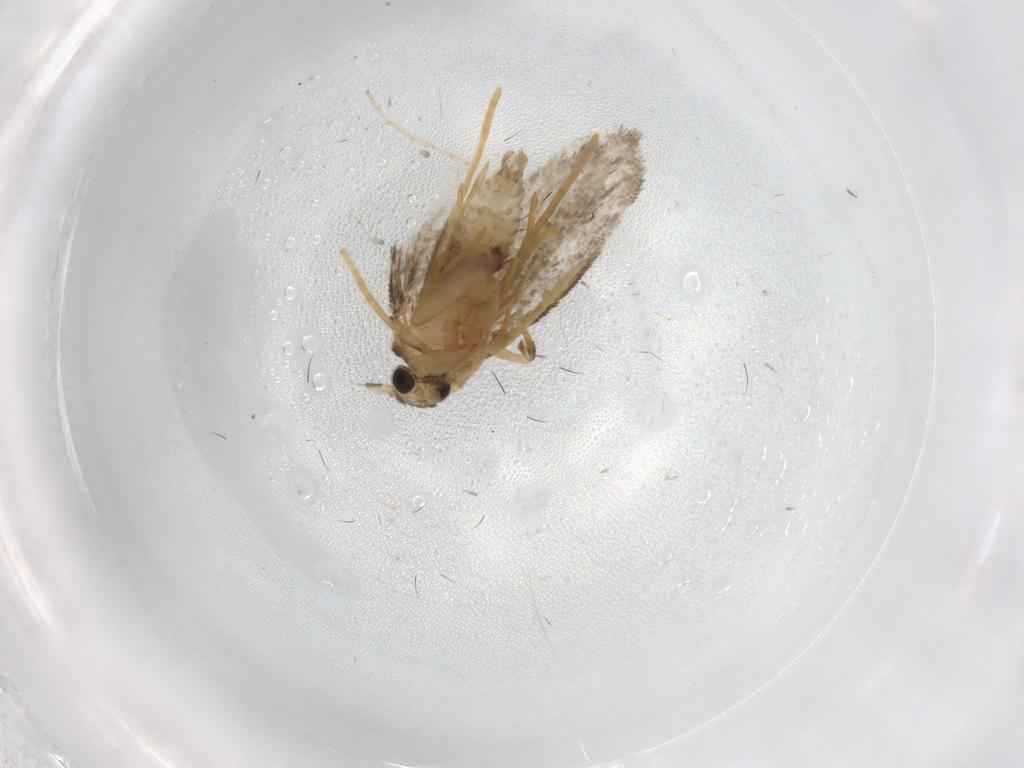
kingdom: Animalia
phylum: Arthropoda
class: Insecta
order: Lepidoptera
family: Psychidae
